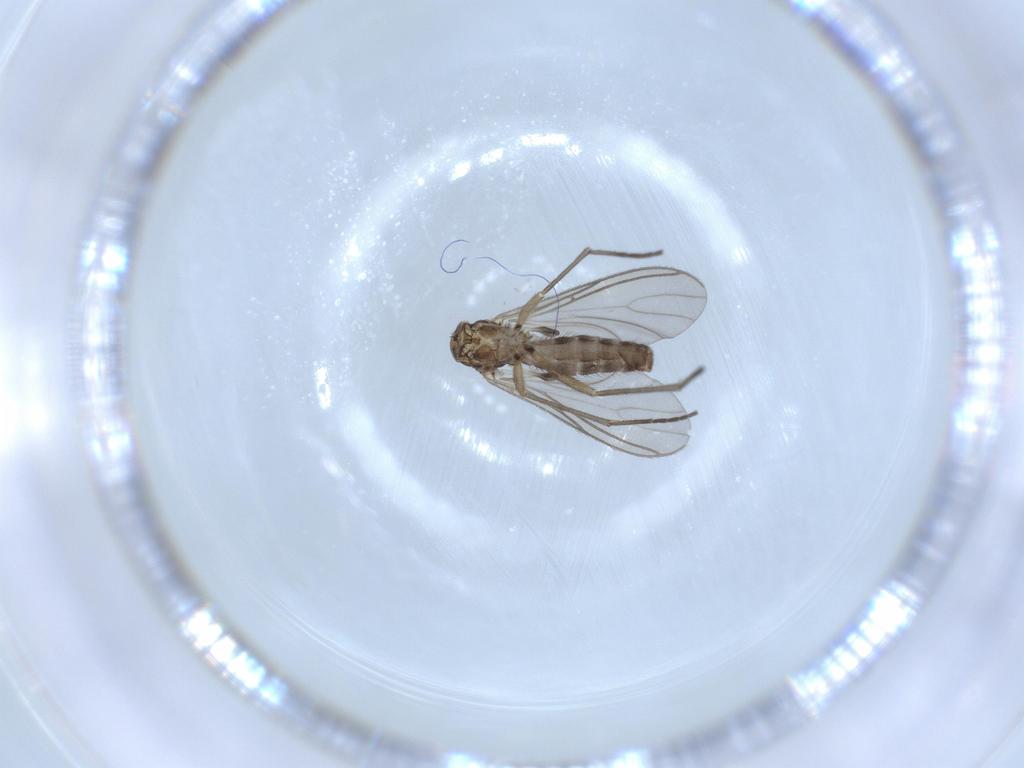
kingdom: Animalia
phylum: Arthropoda
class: Insecta
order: Diptera
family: Sciaridae
